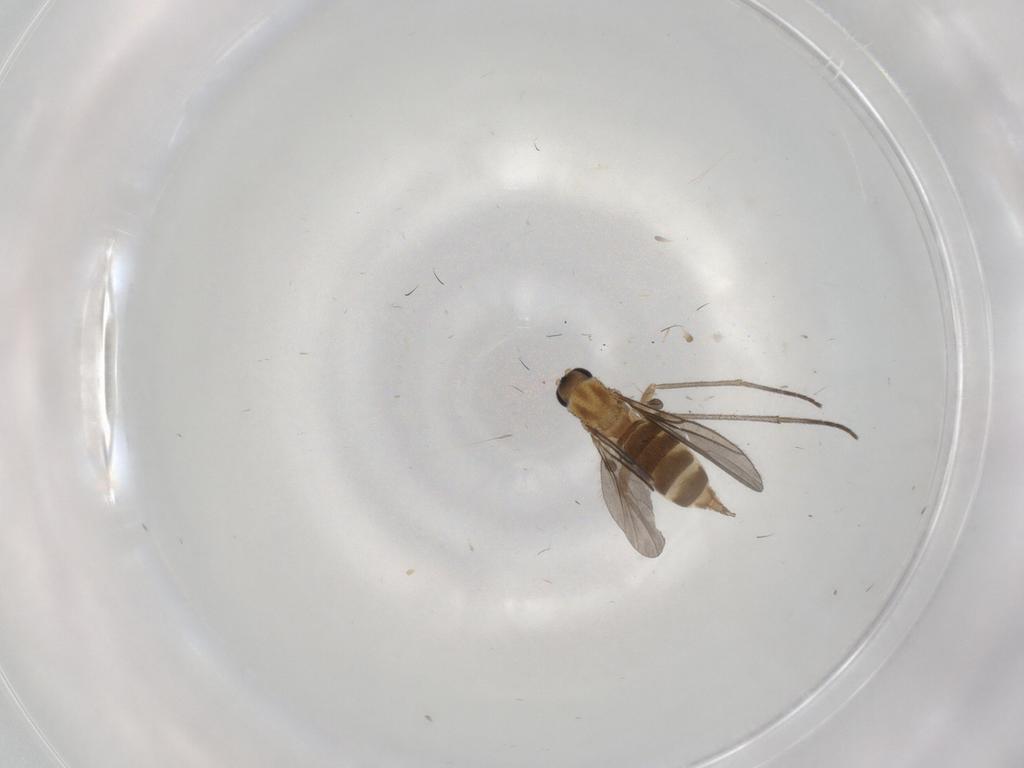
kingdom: Animalia
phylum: Arthropoda
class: Insecta
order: Diptera
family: Sciaridae
